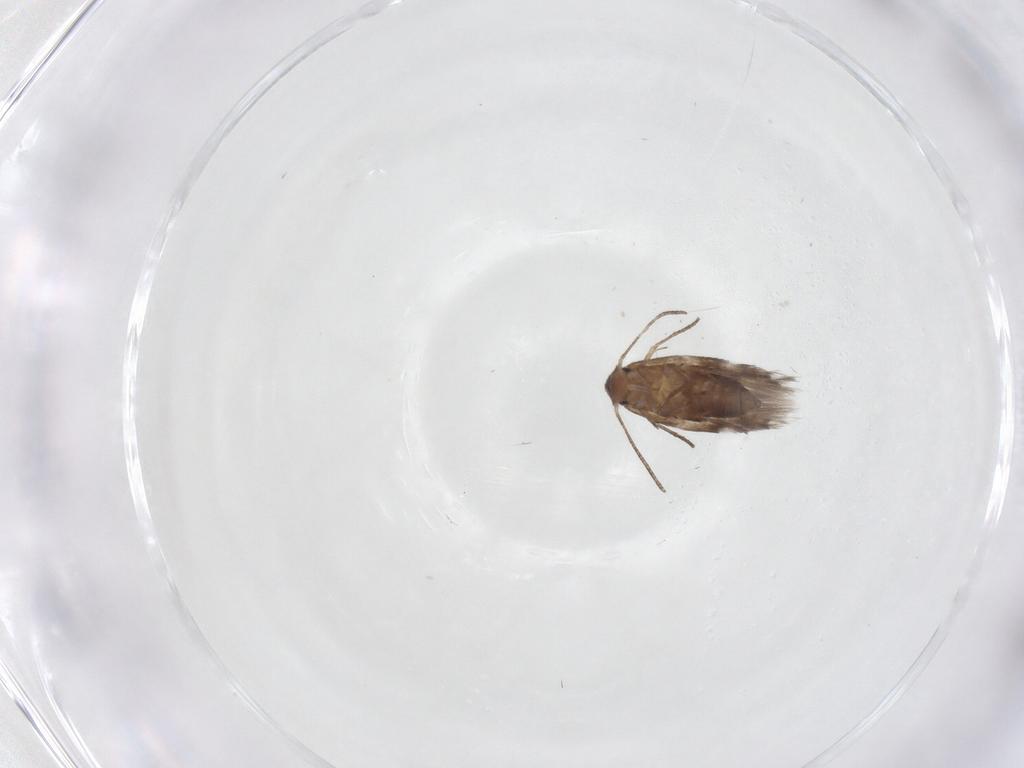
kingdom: Animalia
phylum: Arthropoda
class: Insecta
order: Lepidoptera
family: Lyonetiidae
